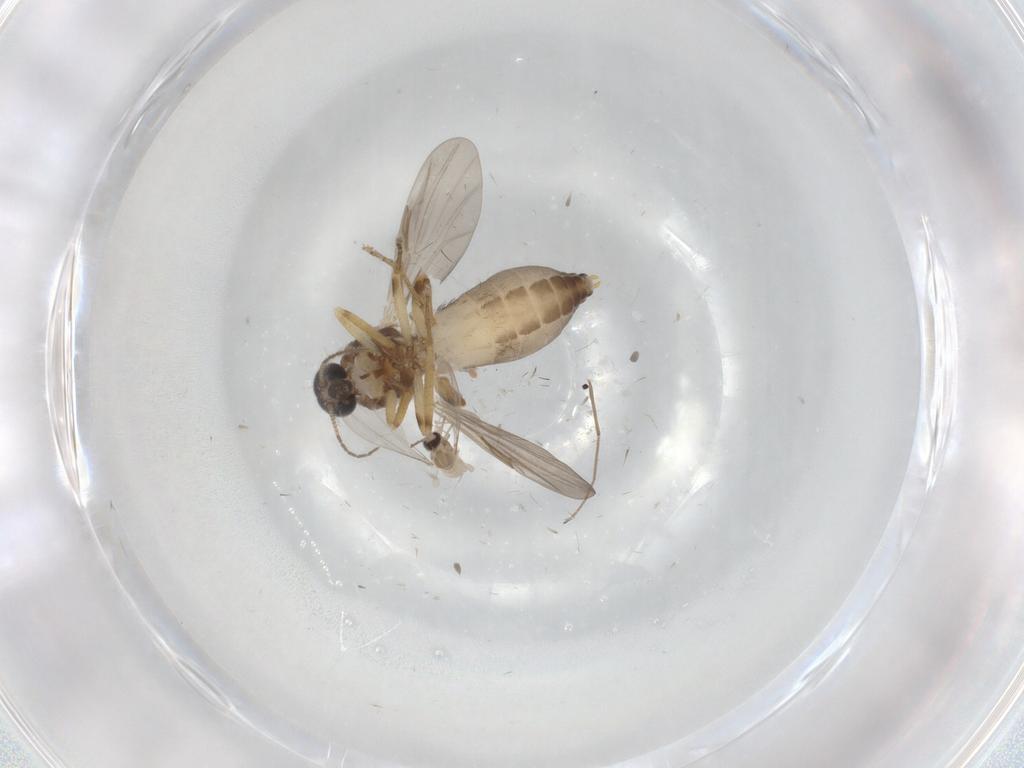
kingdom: Animalia
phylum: Arthropoda
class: Insecta
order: Diptera
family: Ceratopogonidae
